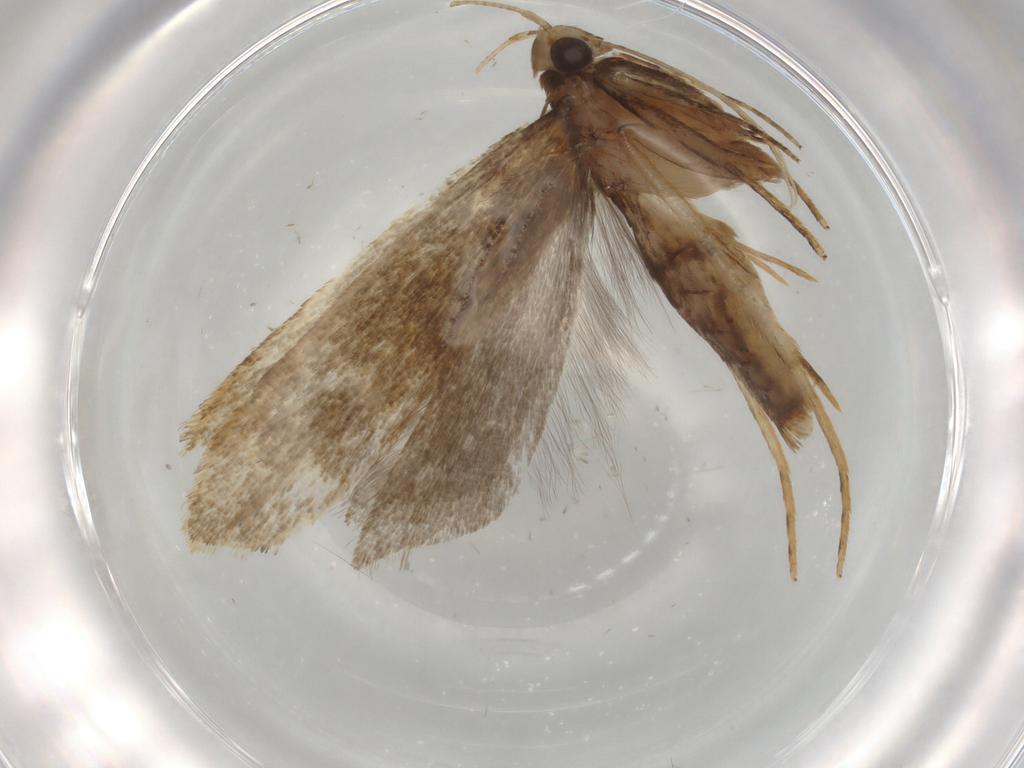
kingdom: Animalia
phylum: Arthropoda
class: Insecta
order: Lepidoptera
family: Gelechiidae
